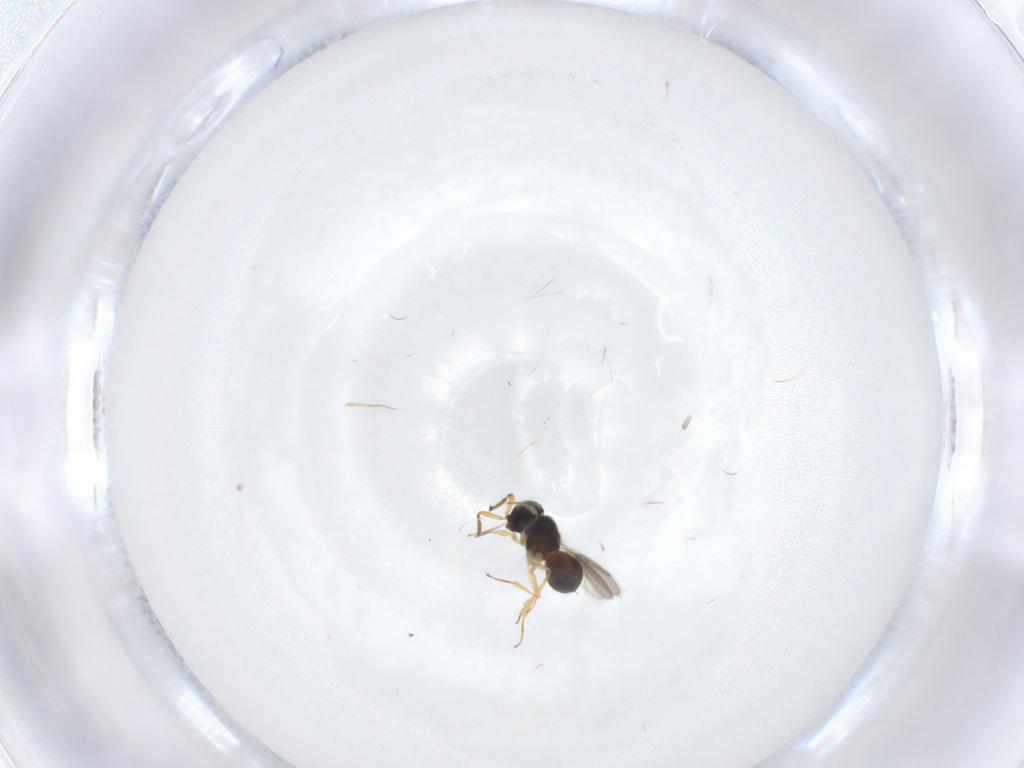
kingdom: Animalia
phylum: Arthropoda
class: Insecta
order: Hymenoptera
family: Scelionidae
